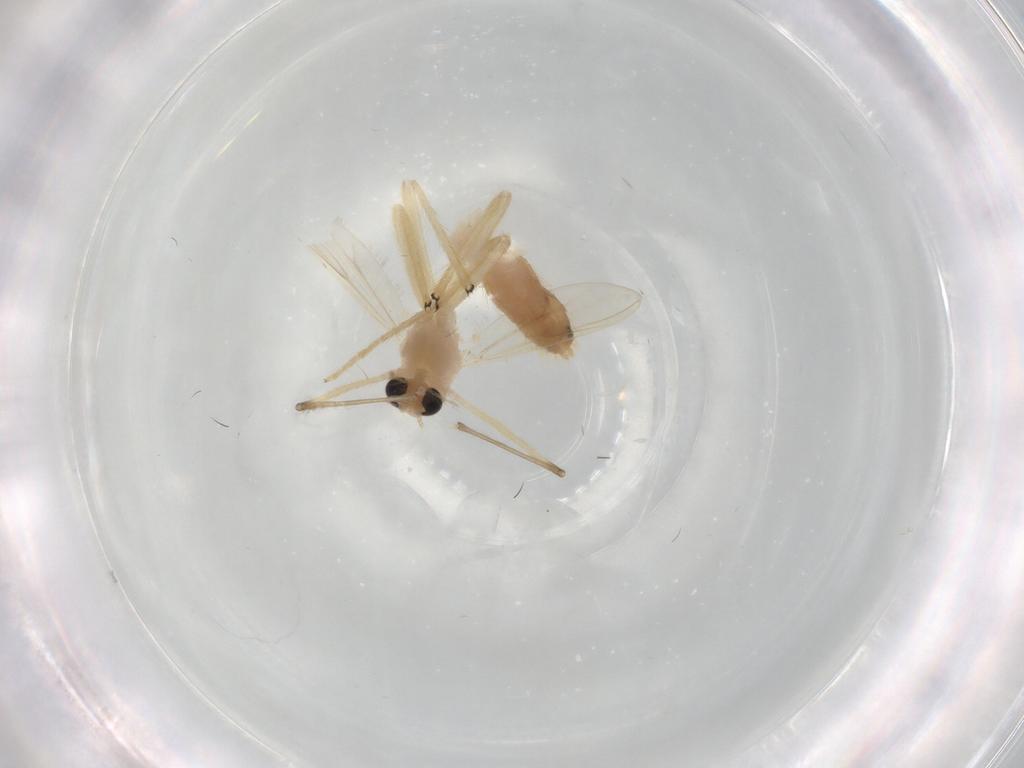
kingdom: Animalia
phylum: Arthropoda
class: Insecta
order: Diptera
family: Chironomidae
